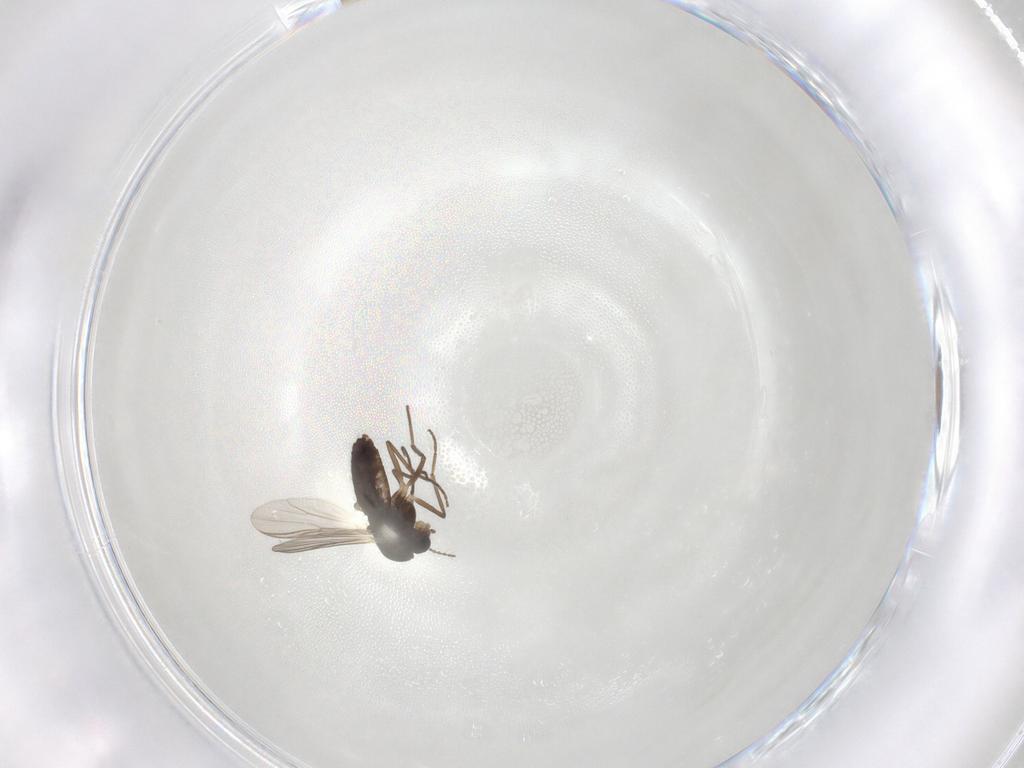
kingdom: Animalia
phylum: Arthropoda
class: Insecta
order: Diptera
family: Chironomidae
